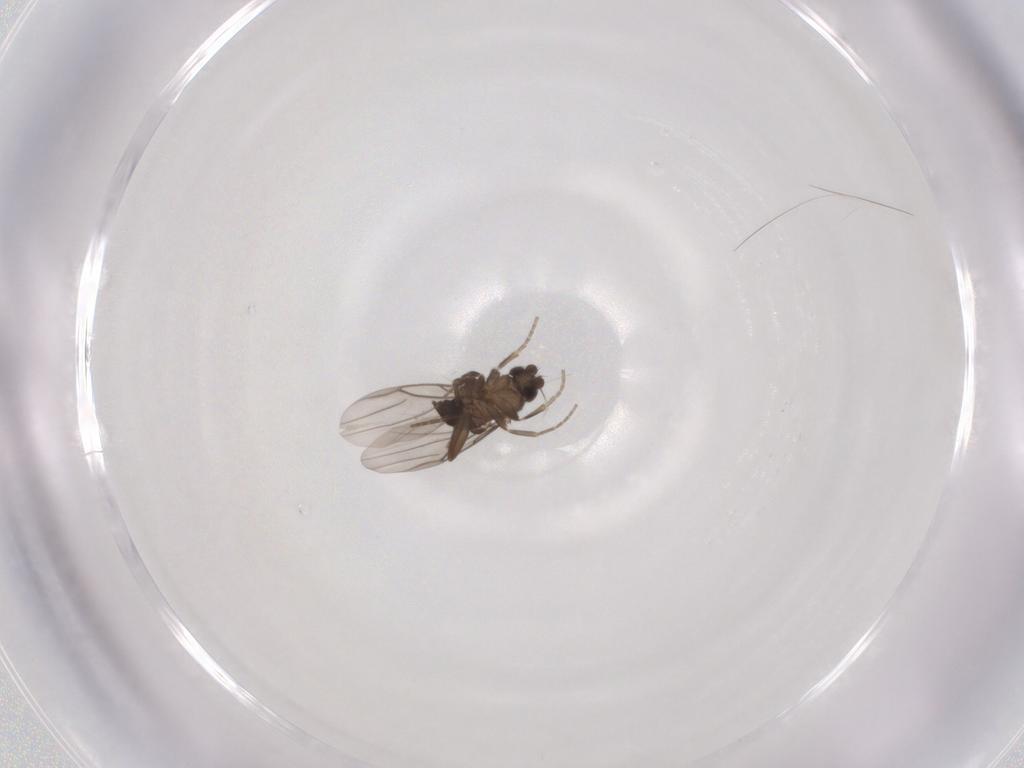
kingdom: Animalia
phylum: Arthropoda
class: Insecta
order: Diptera
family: Phoridae
